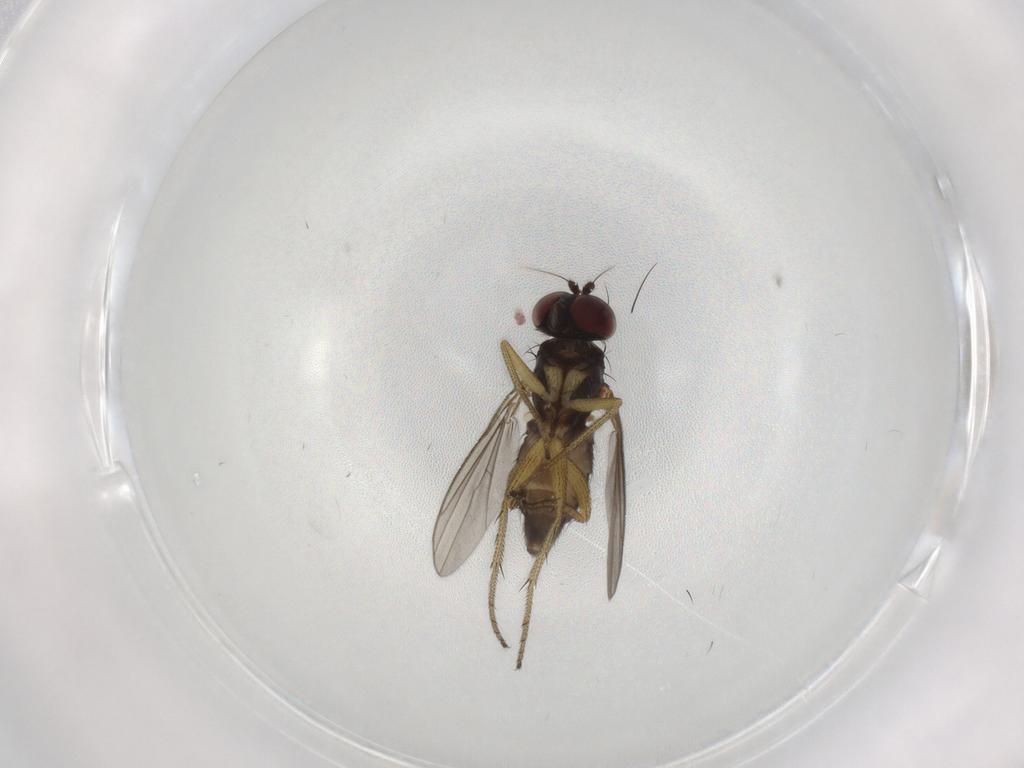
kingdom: Animalia
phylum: Arthropoda
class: Insecta
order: Diptera
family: Dolichopodidae
